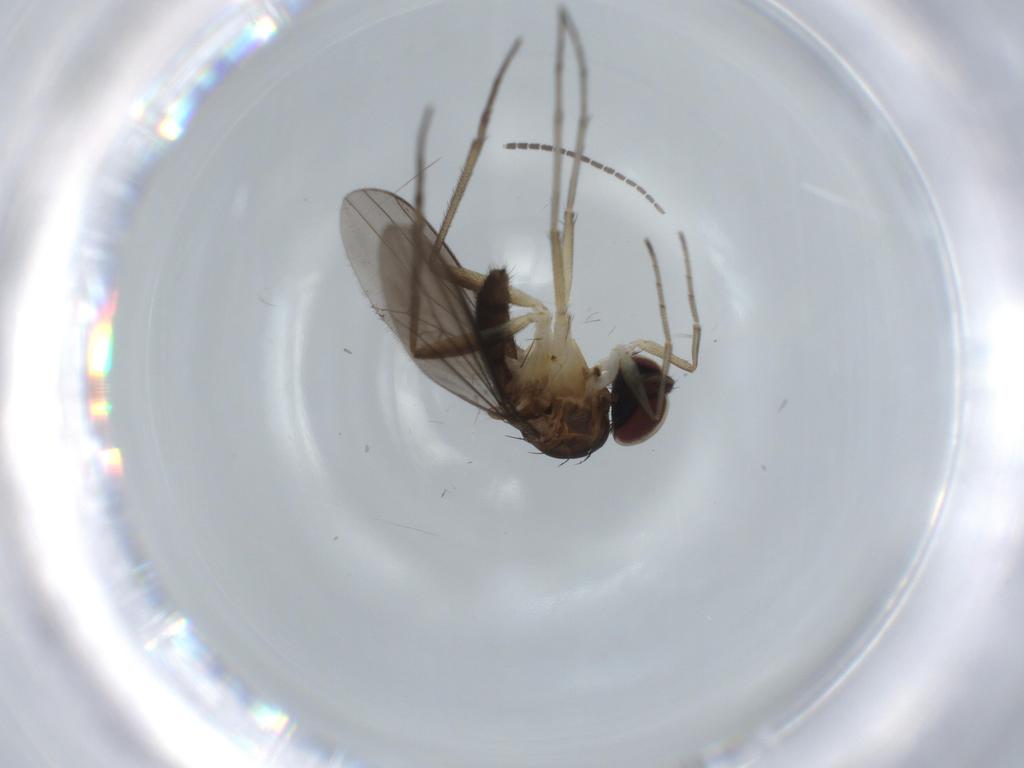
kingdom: Animalia
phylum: Arthropoda
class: Insecta
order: Diptera
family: Dolichopodidae
